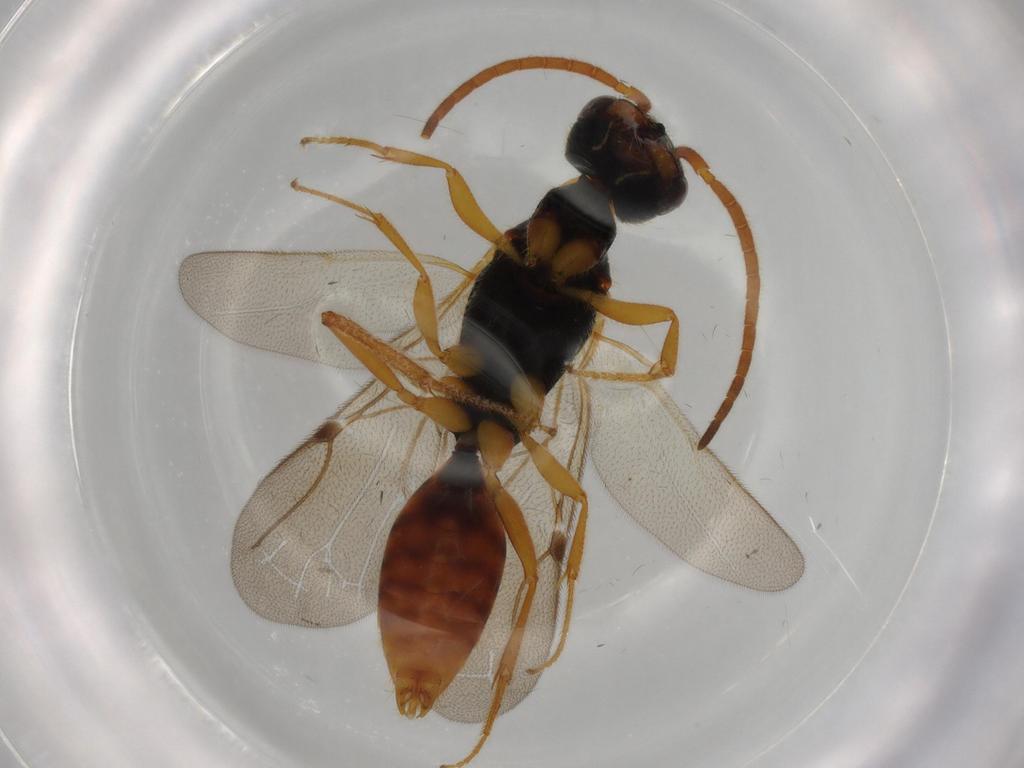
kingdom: Animalia
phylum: Arthropoda
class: Insecta
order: Hymenoptera
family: Bethylidae
